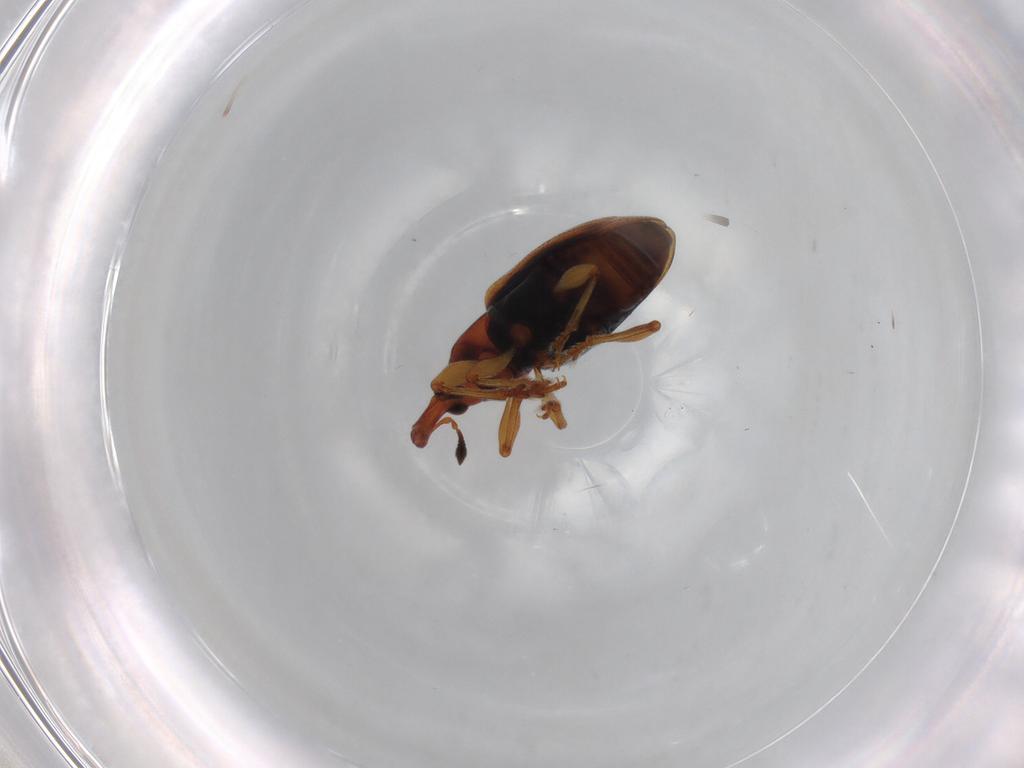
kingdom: Animalia
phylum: Arthropoda
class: Insecta
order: Coleoptera
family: Curculionidae
